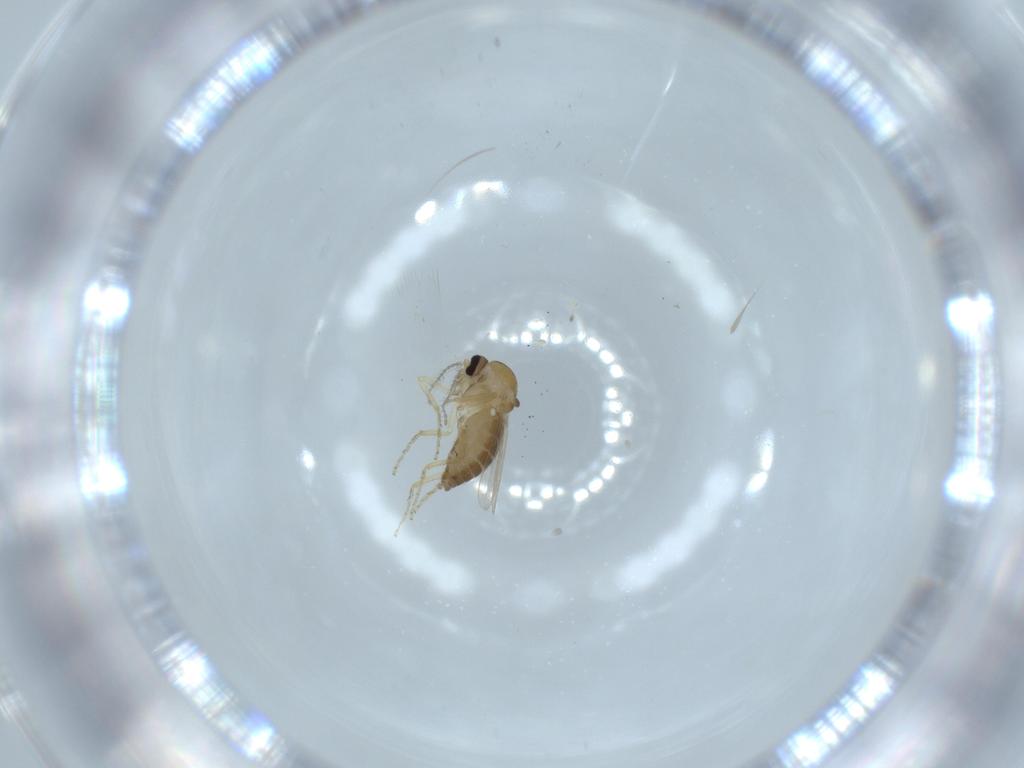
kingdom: Animalia
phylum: Arthropoda
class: Insecta
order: Diptera
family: Ceratopogonidae
